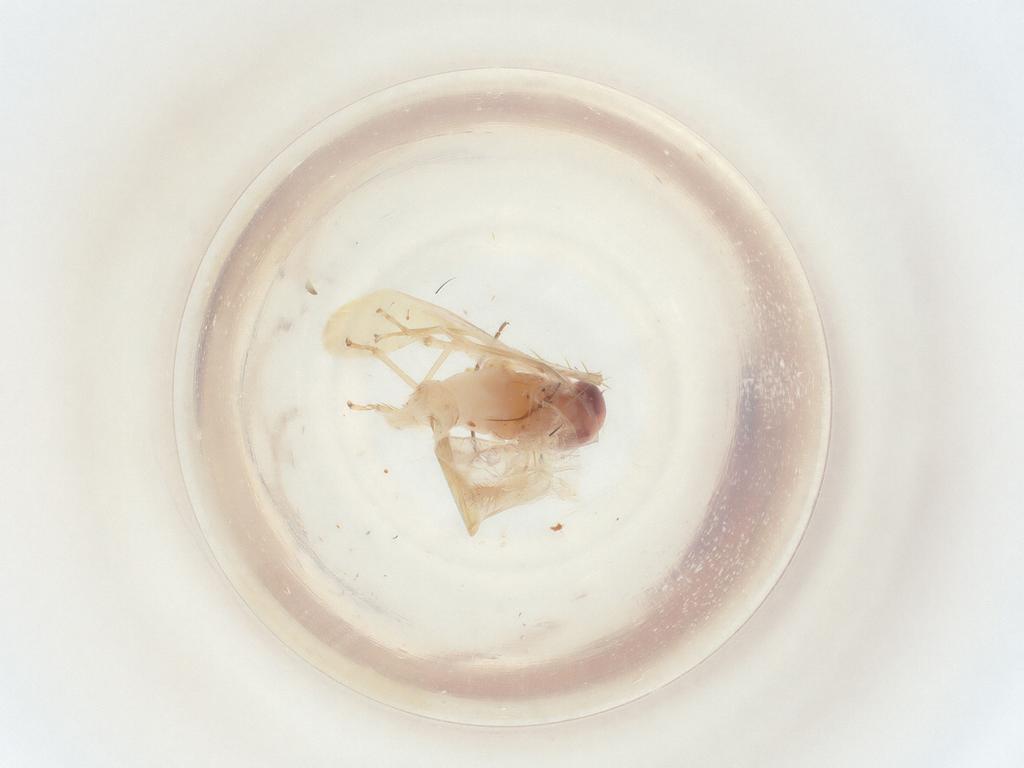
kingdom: Animalia
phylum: Arthropoda
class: Insecta
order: Hemiptera
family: Cicadellidae
